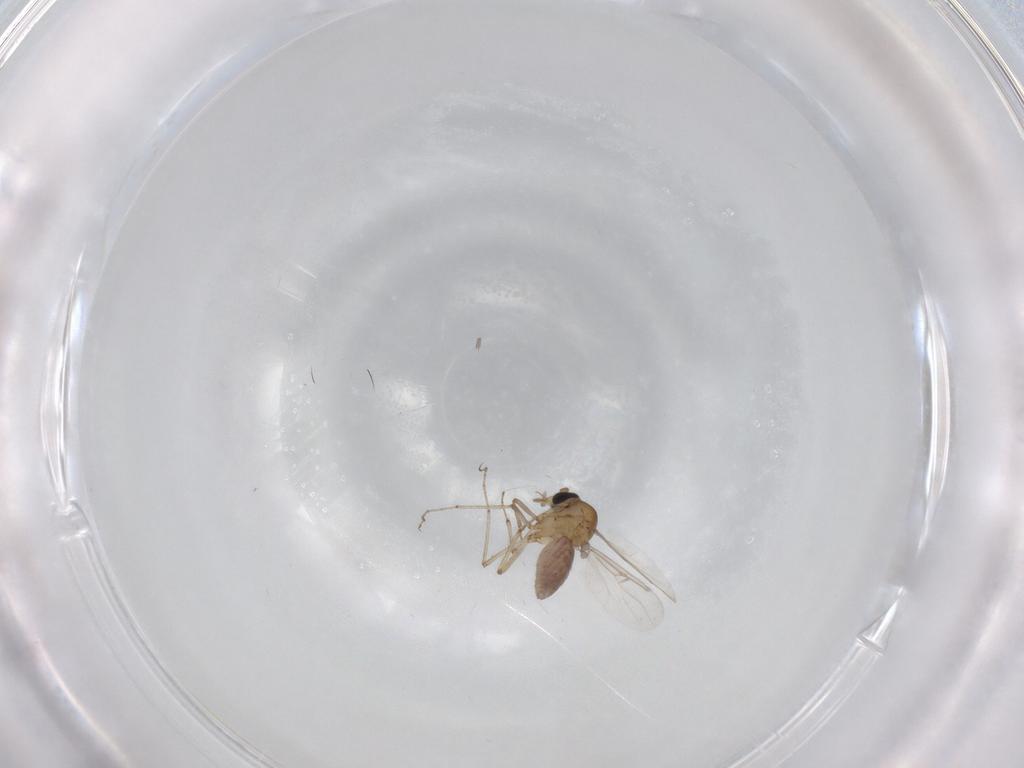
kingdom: Animalia
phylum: Arthropoda
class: Insecta
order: Diptera
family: Ceratopogonidae
